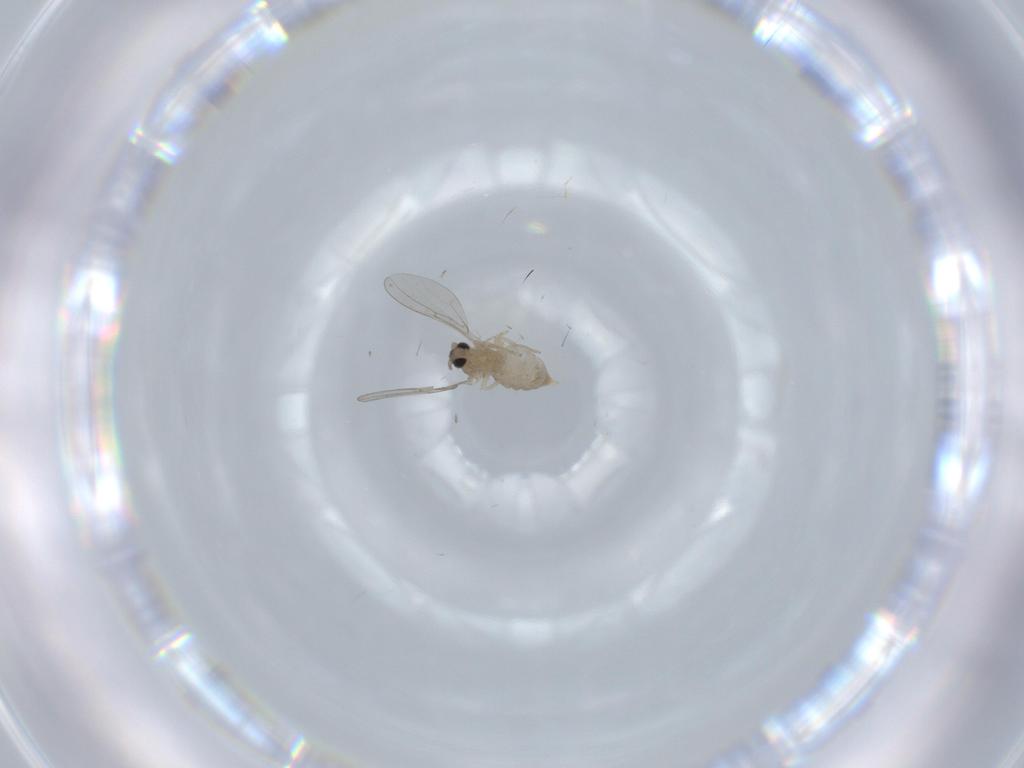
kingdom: Animalia
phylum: Arthropoda
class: Insecta
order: Diptera
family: Cecidomyiidae
